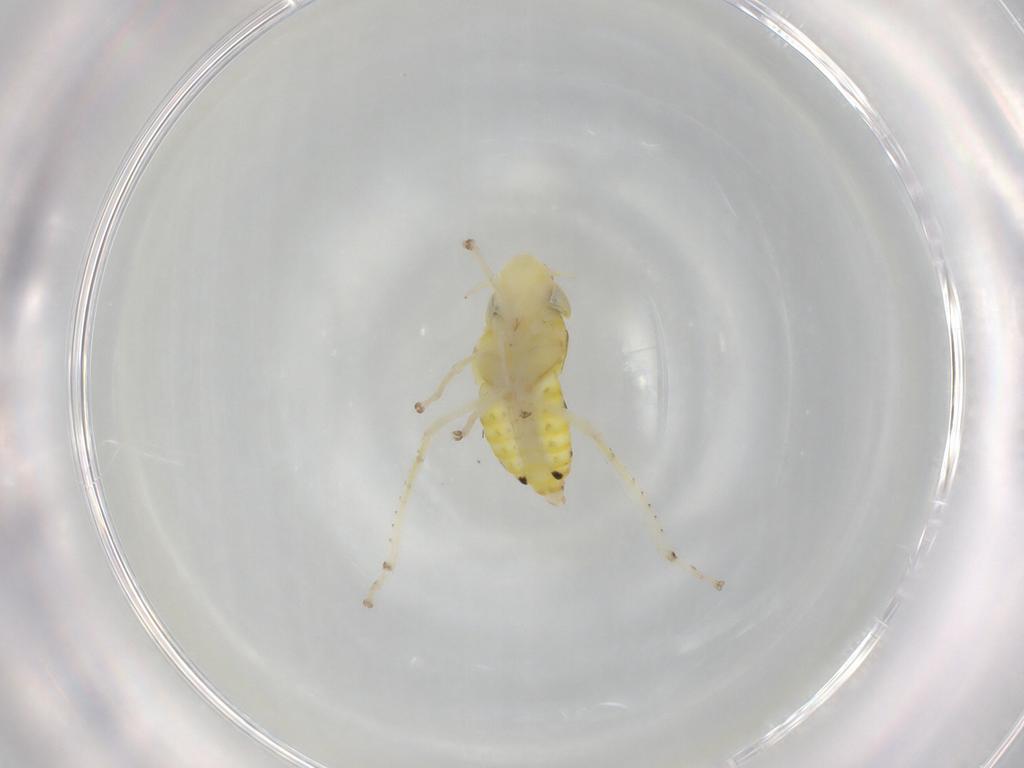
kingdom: Animalia
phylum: Arthropoda
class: Insecta
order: Hemiptera
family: Cicadellidae
